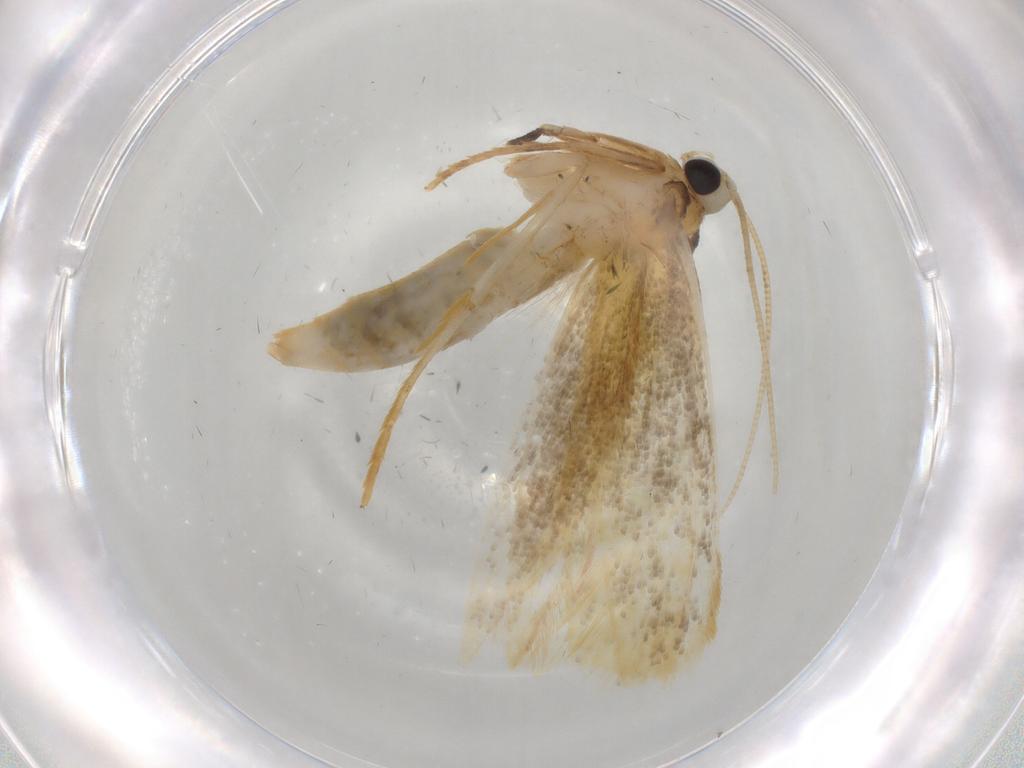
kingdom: Animalia
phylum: Arthropoda
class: Insecta
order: Lepidoptera
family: Tineidae
